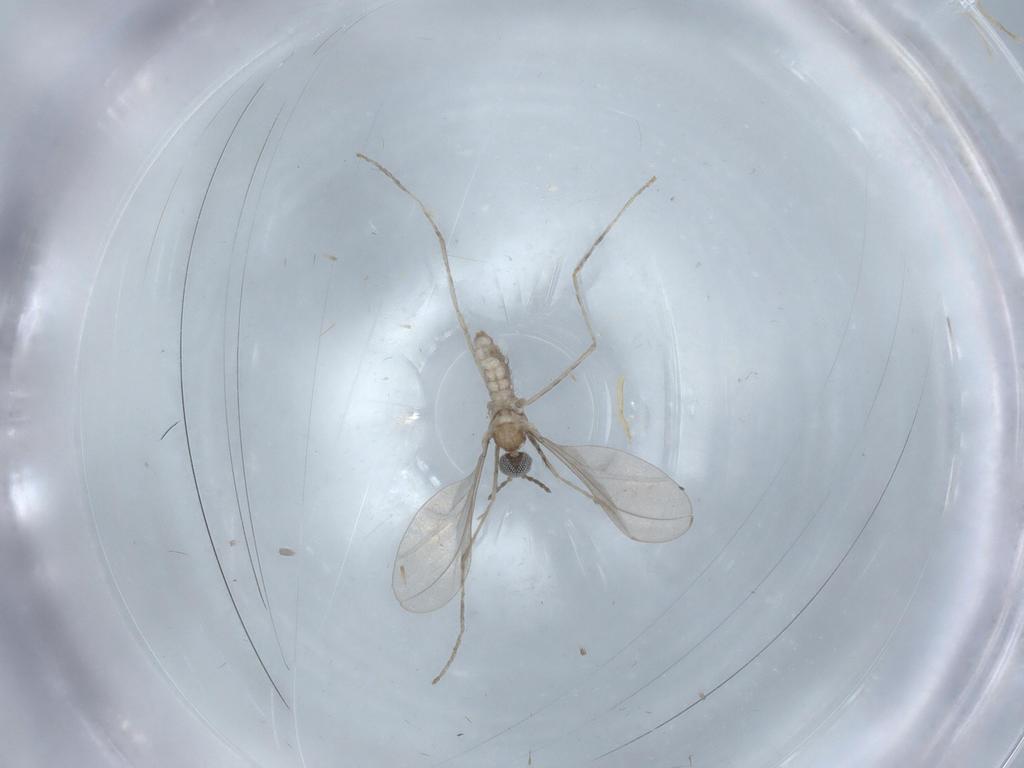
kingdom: Animalia
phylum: Arthropoda
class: Insecta
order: Diptera
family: Cecidomyiidae
